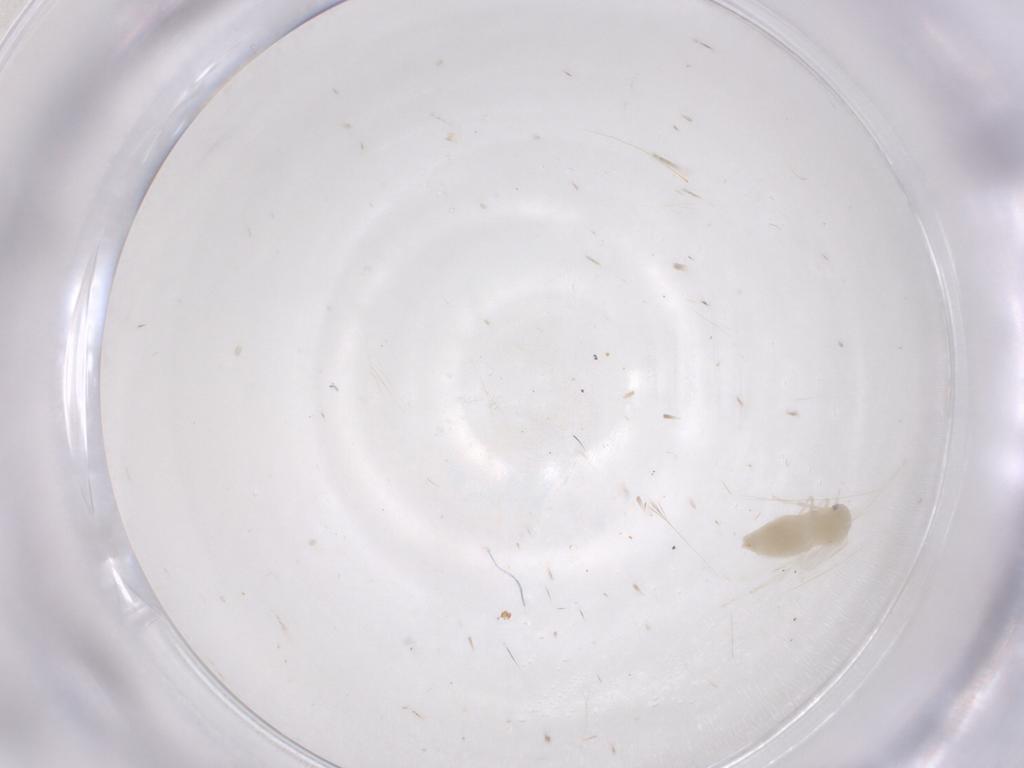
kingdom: Animalia
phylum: Arthropoda
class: Insecta
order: Hemiptera
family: Aleyrodidae
